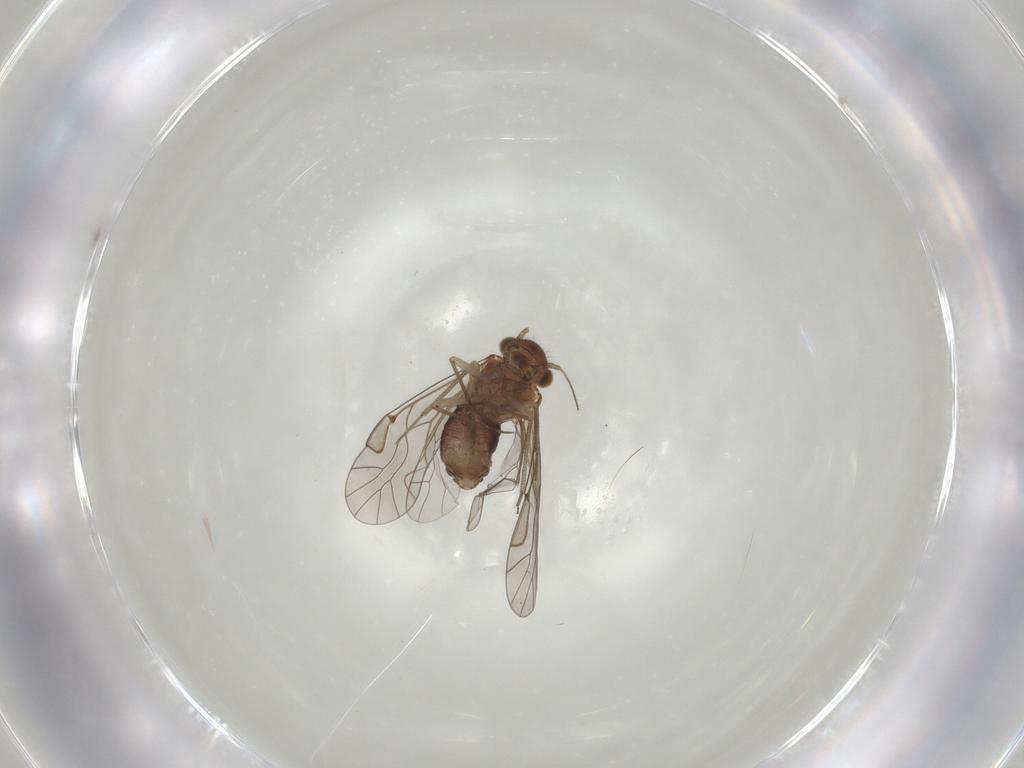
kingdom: Animalia
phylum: Arthropoda
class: Insecta
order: Psocodea
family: Lachesillidae
